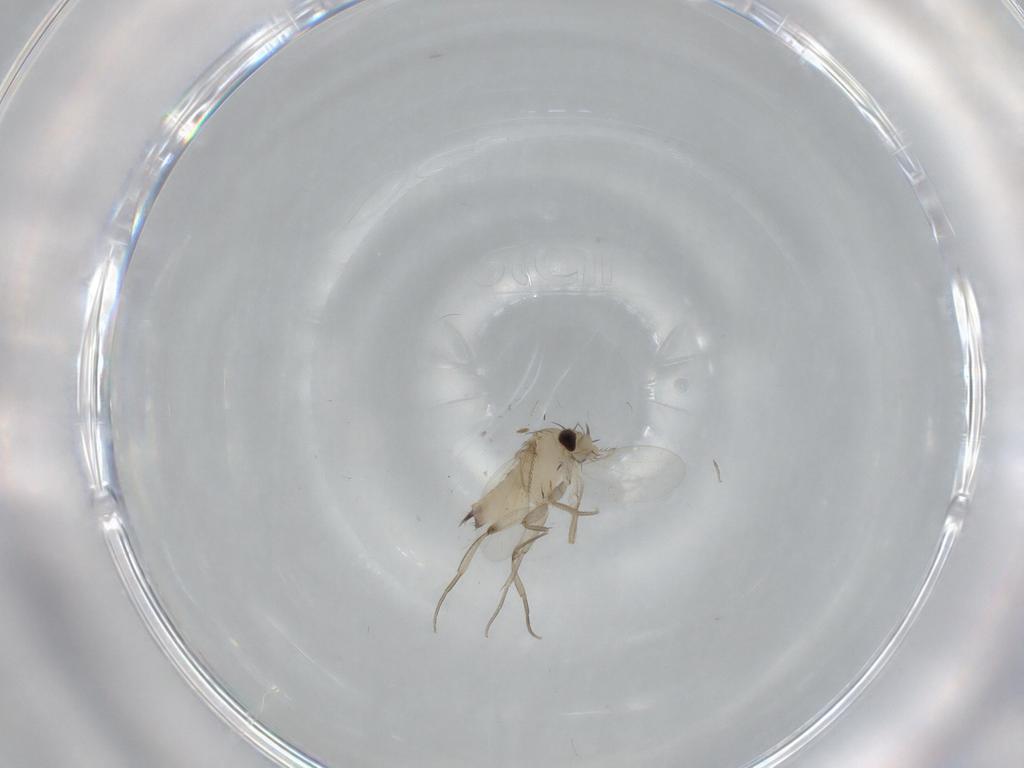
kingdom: Animalia
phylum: Arthropoda
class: Insecta
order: Diptera
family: Phoridae
